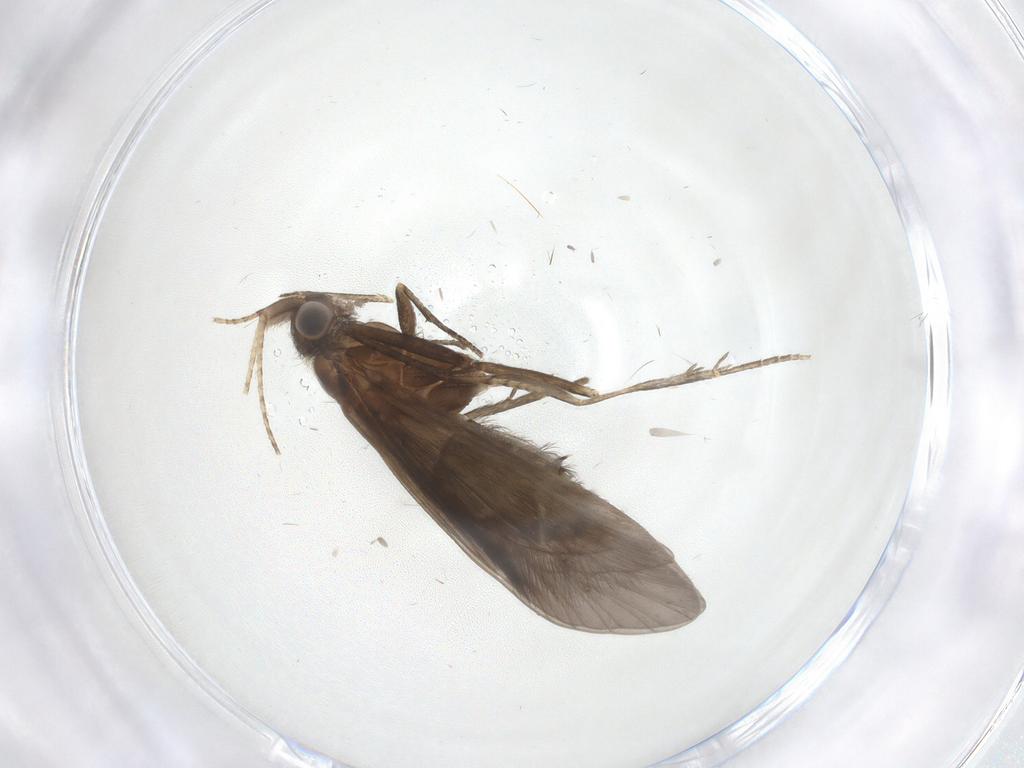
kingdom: Animalia
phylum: Arthropoda
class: Insecta
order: Trichoptera
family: Helicopsychidae
